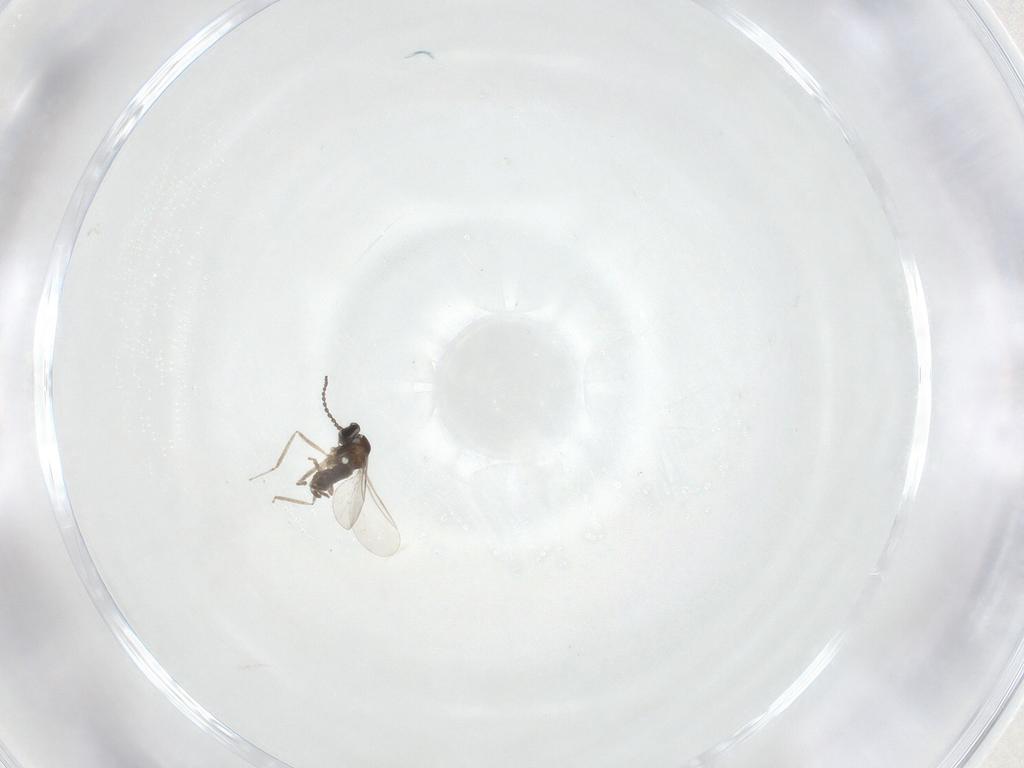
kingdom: Animalia
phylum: Arthropoda
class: Insecta
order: Diptera
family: Cecidomyiidae
